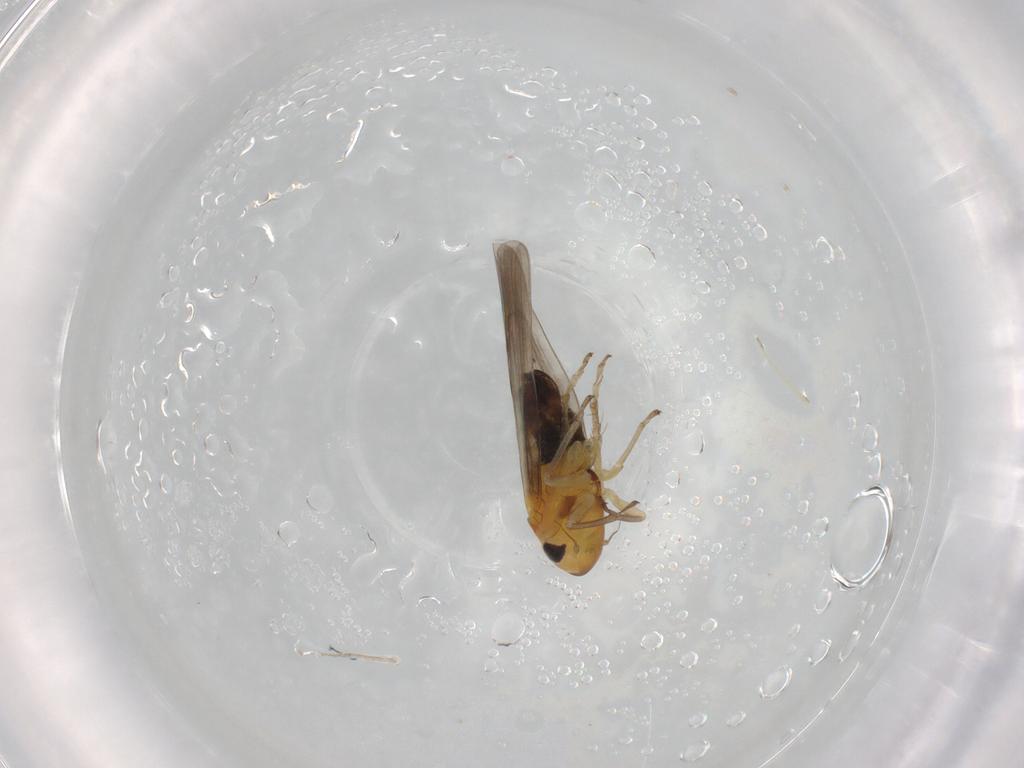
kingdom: Animalia
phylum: Arthropoda
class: Insecta
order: Hemiptera
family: Cicadellidae
